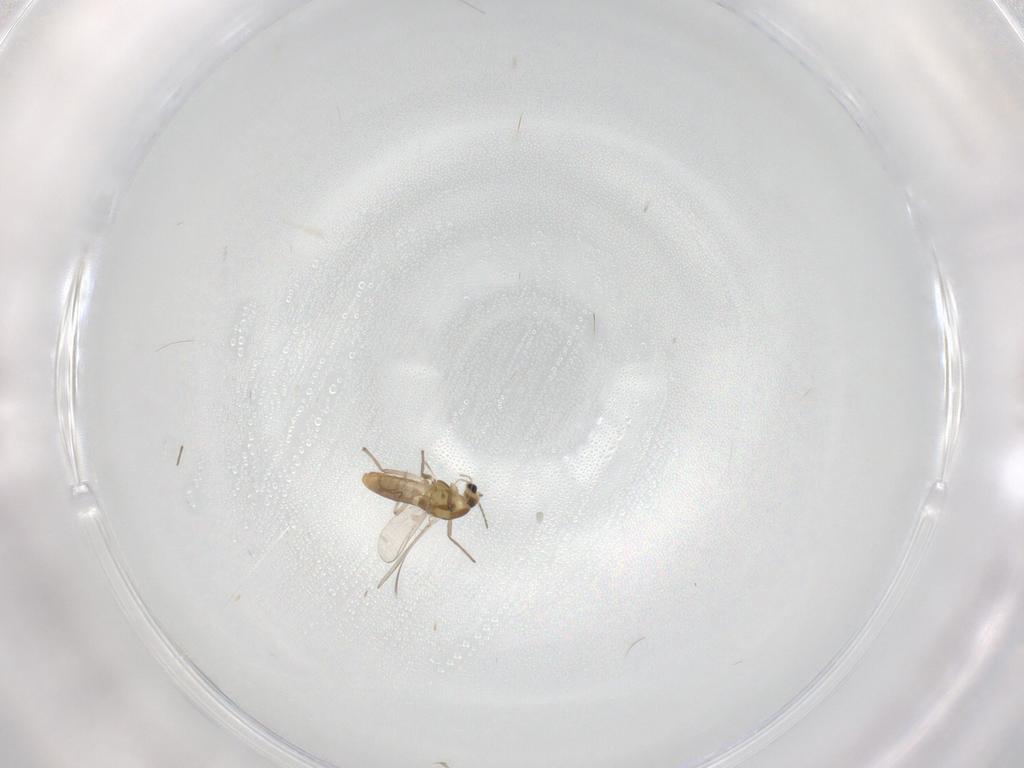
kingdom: Animalia
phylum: Arthropoda
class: Insecta
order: Diptera
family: Chironomidae
